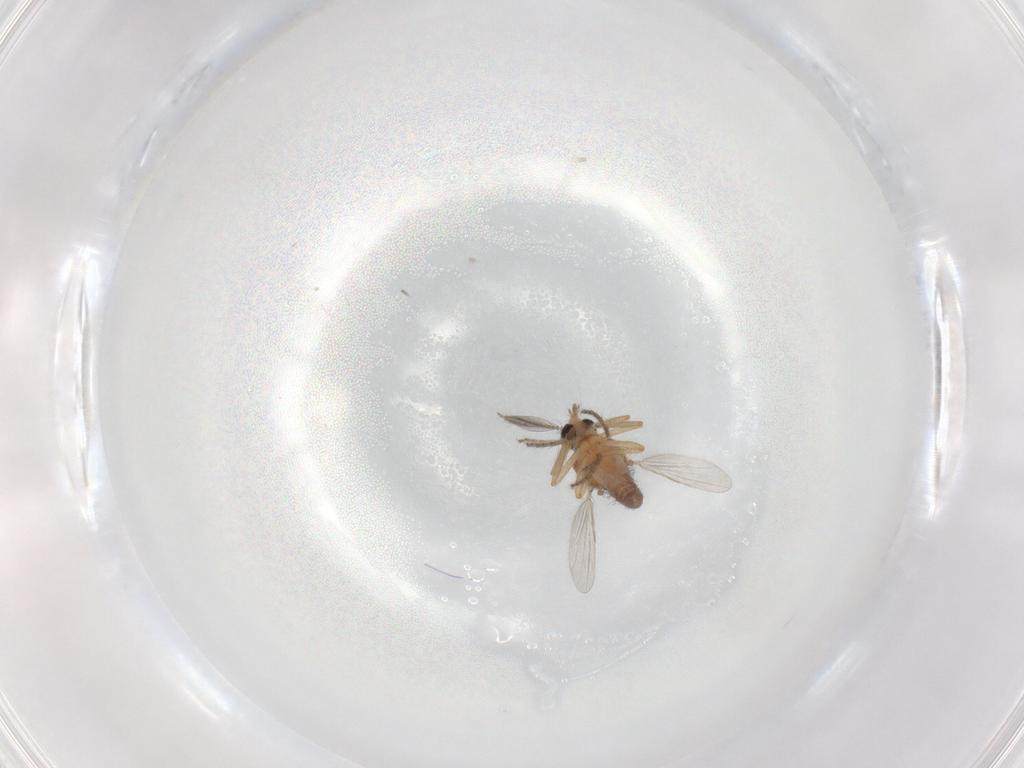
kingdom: Animalia
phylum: Arthropoda
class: Insecta
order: Diptera
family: Ceratopogonidae
